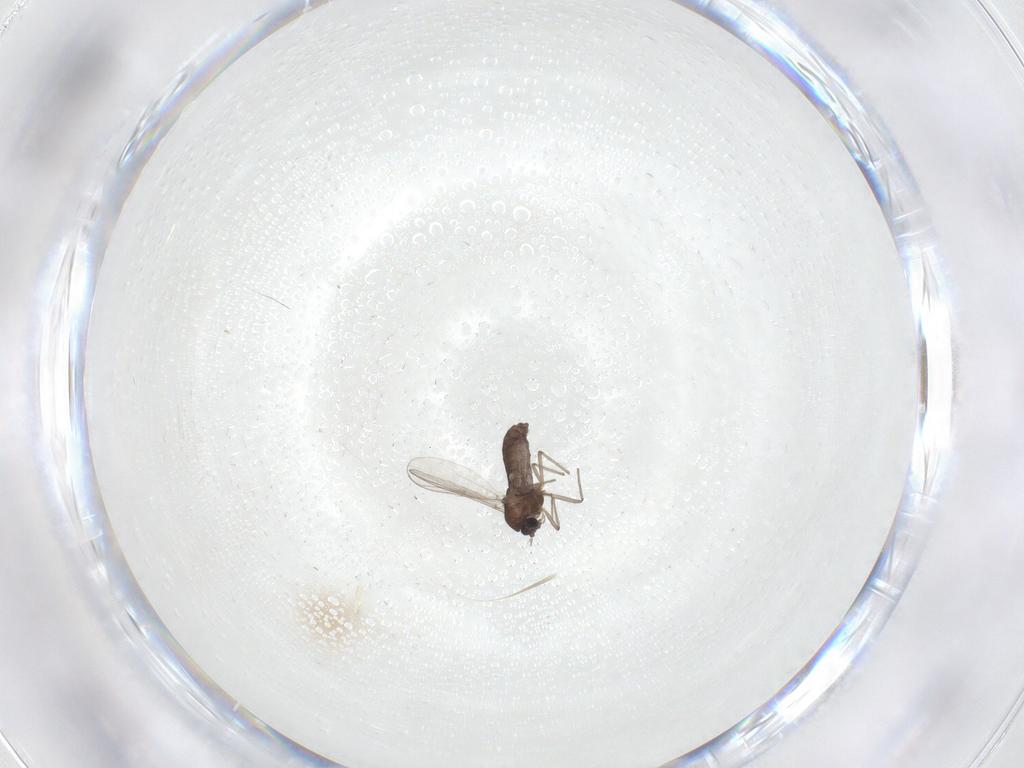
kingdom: Animalia
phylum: Arthropoda
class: Insecta
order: Diptera
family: Chironomidae
